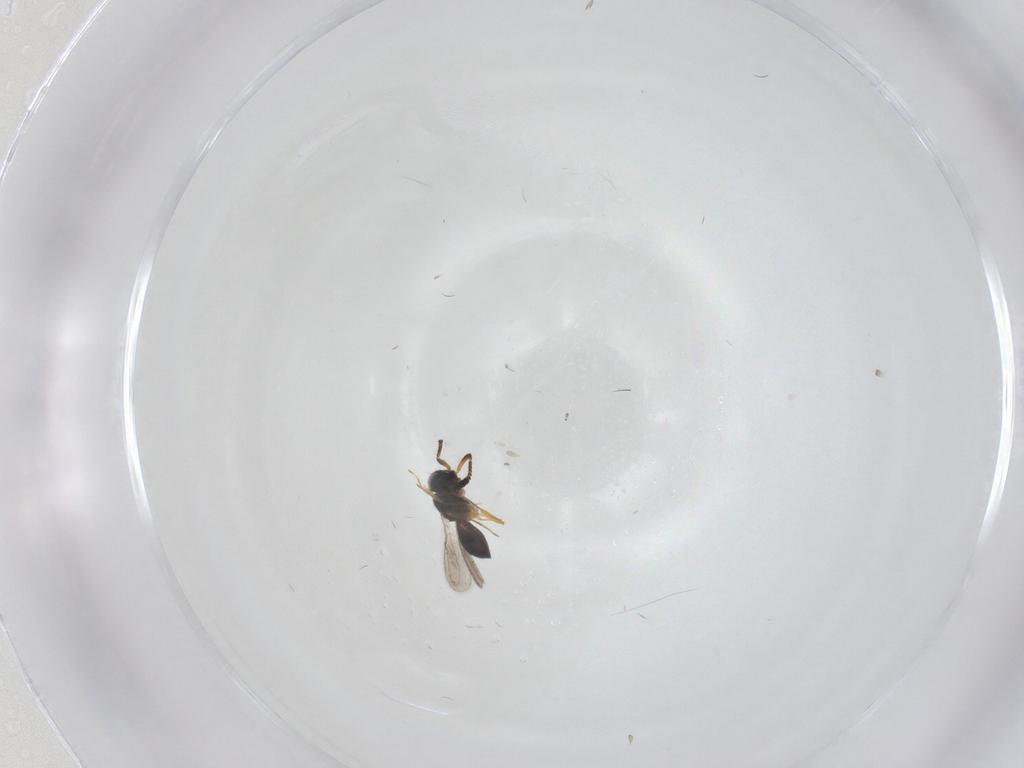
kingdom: Animalia
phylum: Arthropoda
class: Insecta
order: Hymenoptera
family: Scelionidae
